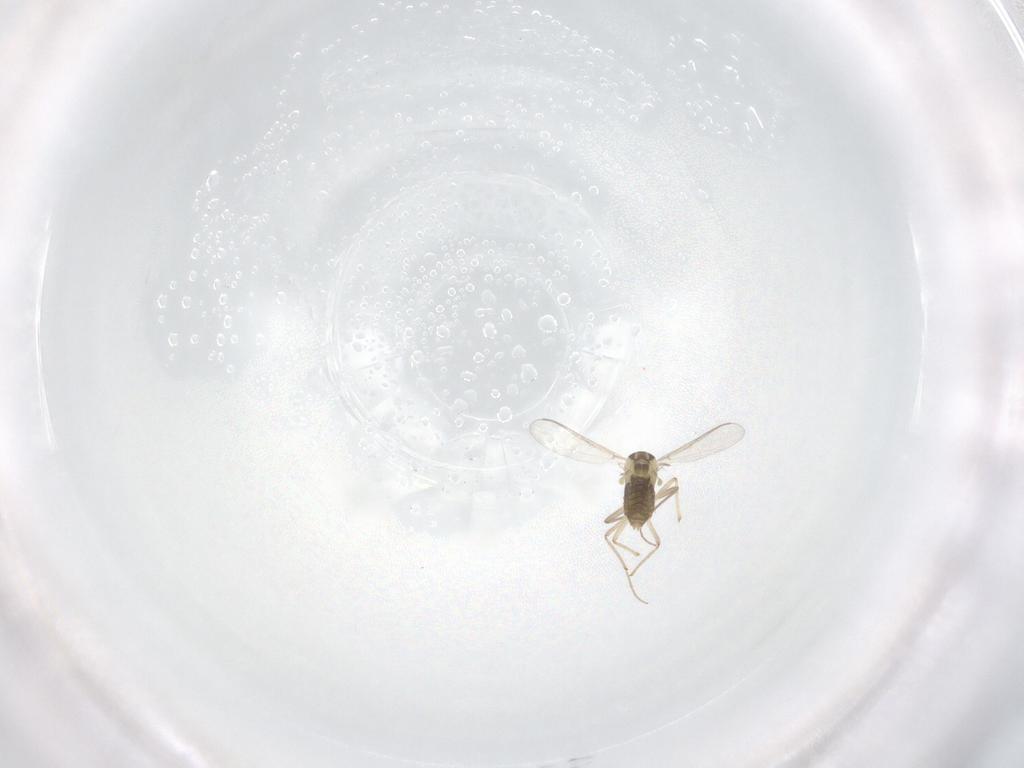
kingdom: Animalia
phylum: Arthropoda
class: Insecta
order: Diptera
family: Chironomidae
